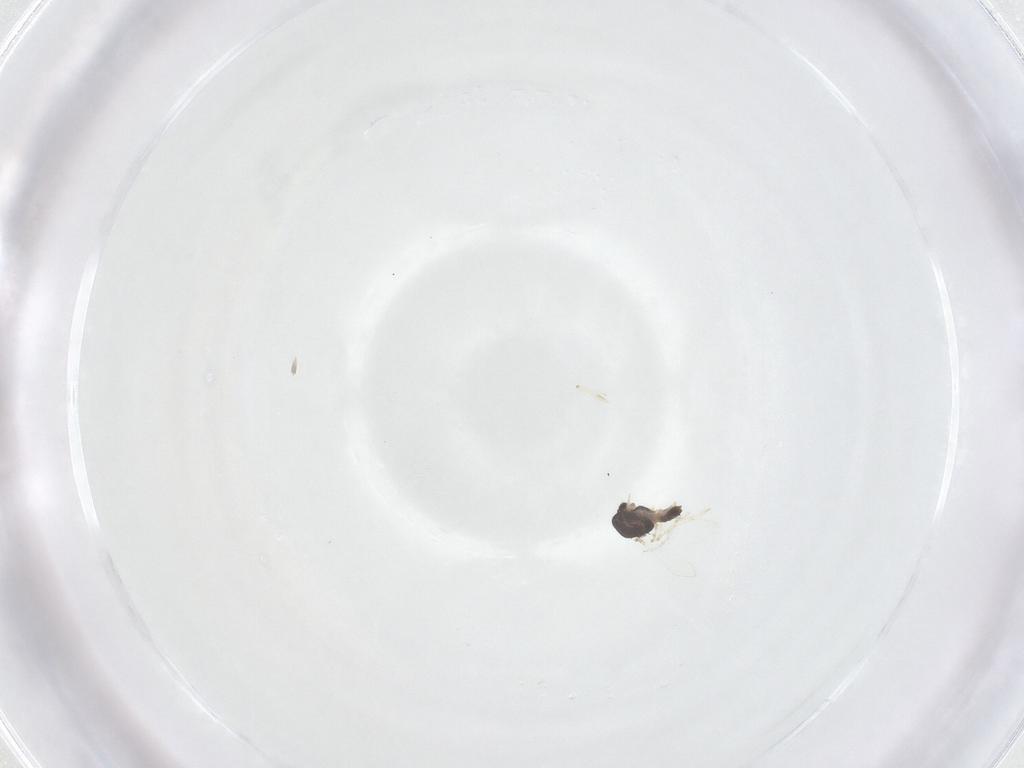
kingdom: Animalia
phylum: Arthropoda
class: Insecta
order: Diptera
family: Chironomidae
